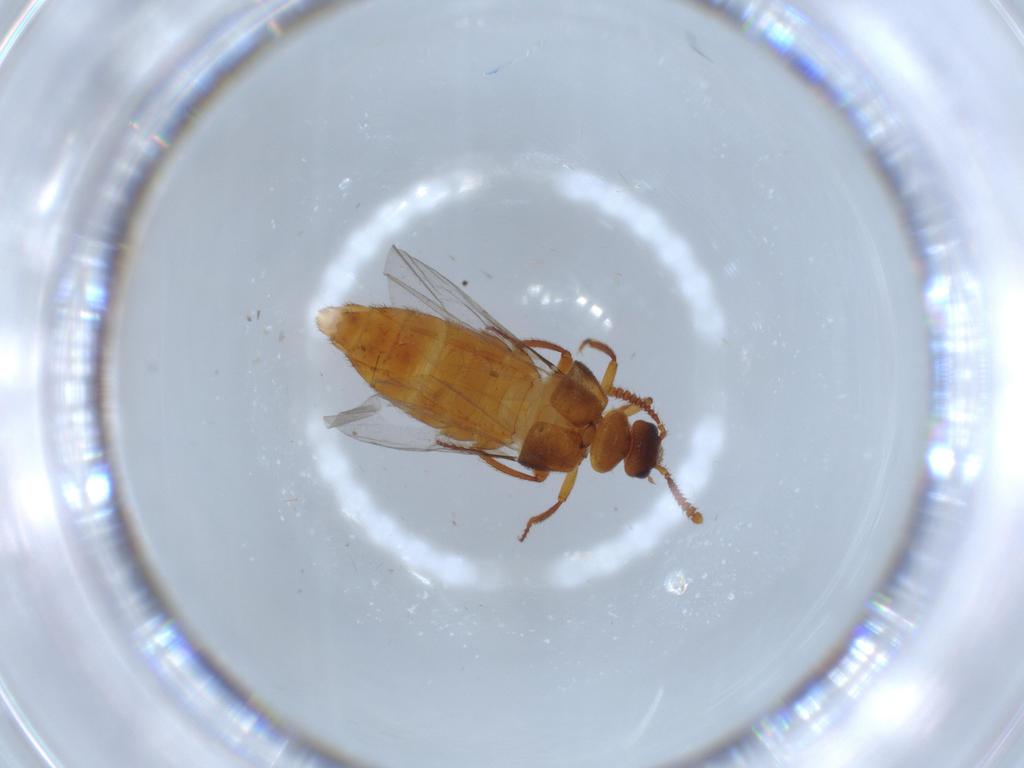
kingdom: Animalia
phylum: Arthropoda
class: Insecta
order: Coleoptera
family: Staphylinidae
